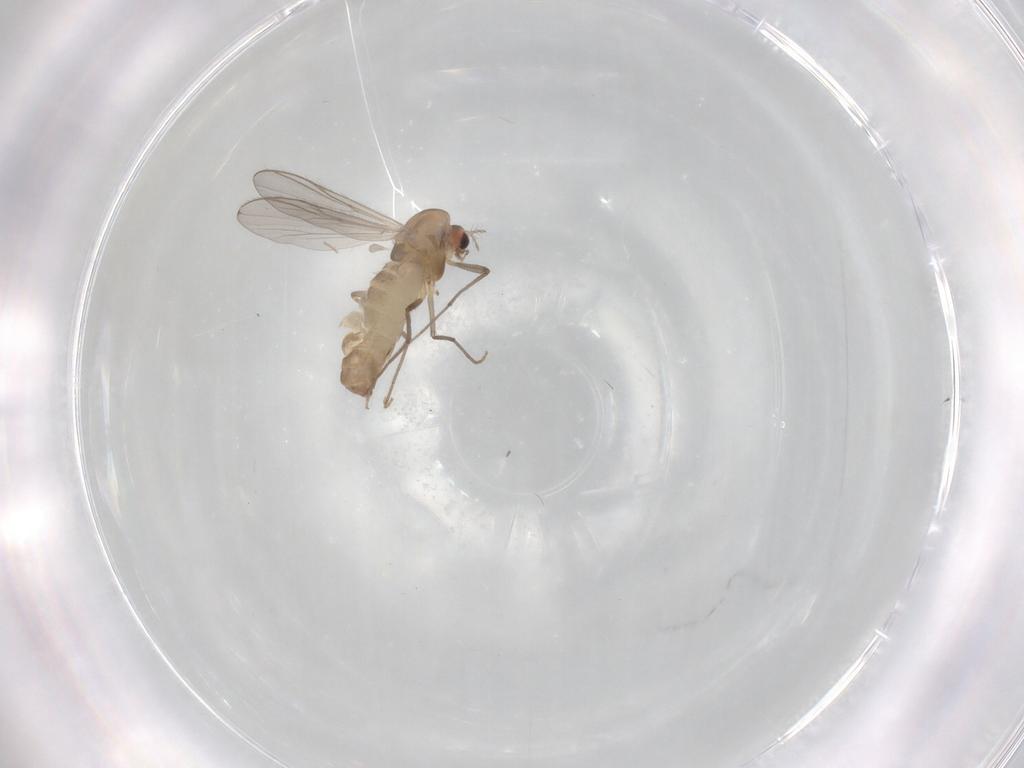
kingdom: Animalia
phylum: Arthropoda
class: Insecta
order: Diptera
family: Chironomidae
